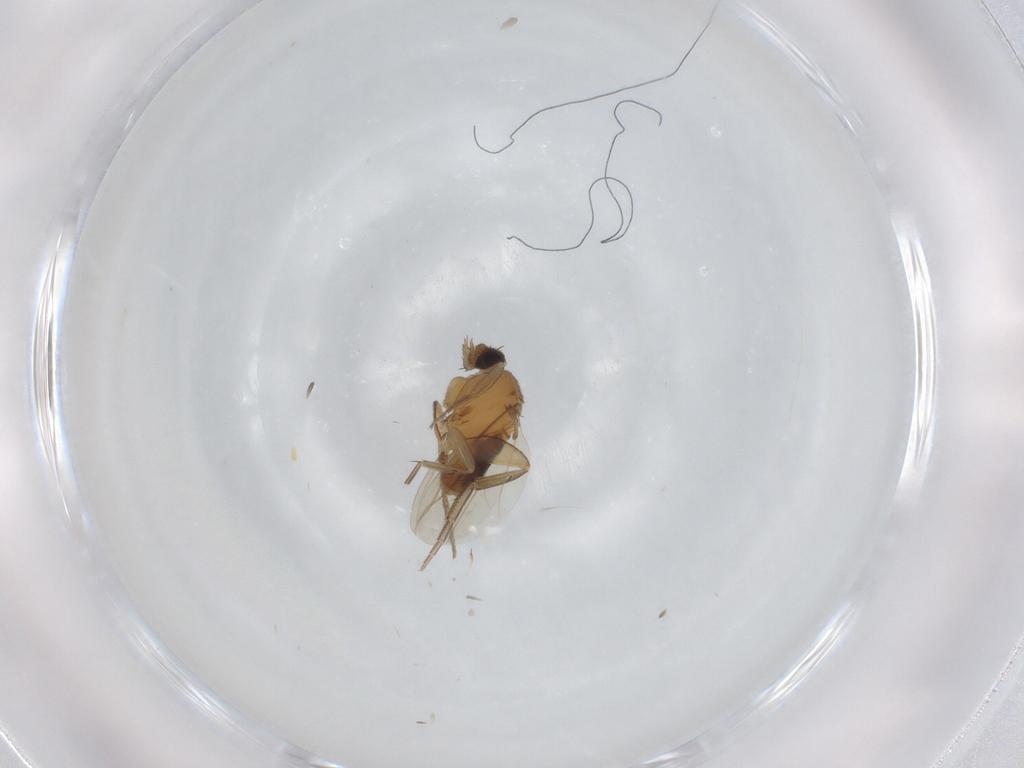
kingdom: Animalia
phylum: Arthropoda
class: Insecta
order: Diptera
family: Phoridae
